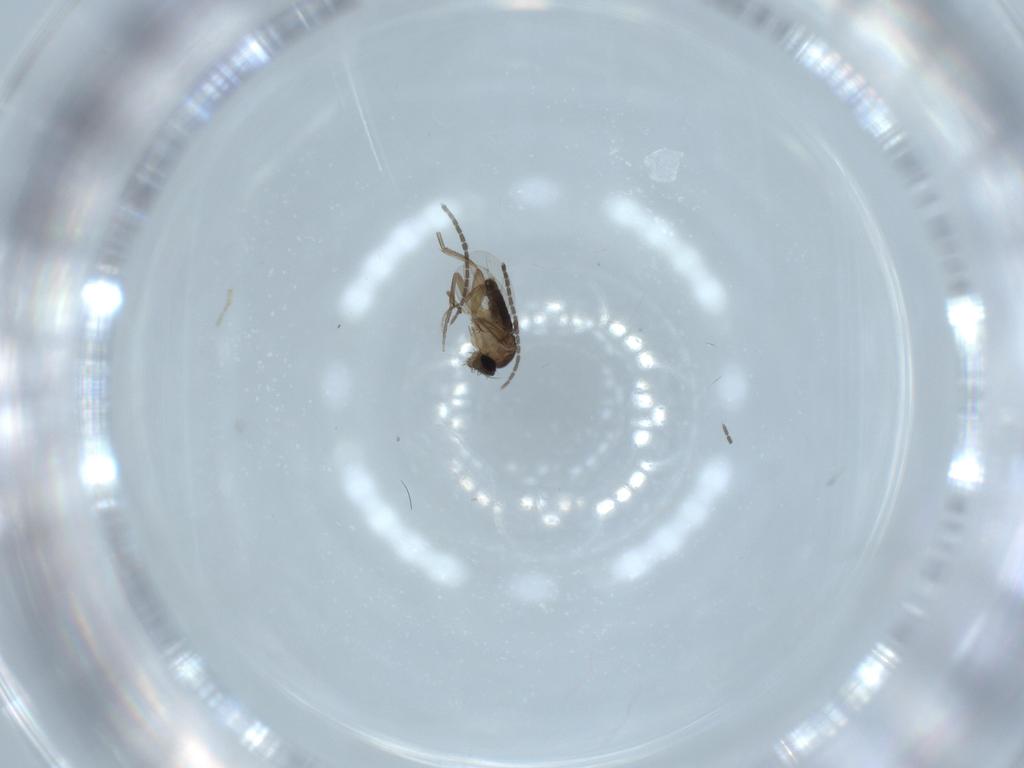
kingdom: Animalia
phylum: Arthropoda
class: Insecta
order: Diptera
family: Phoridae
